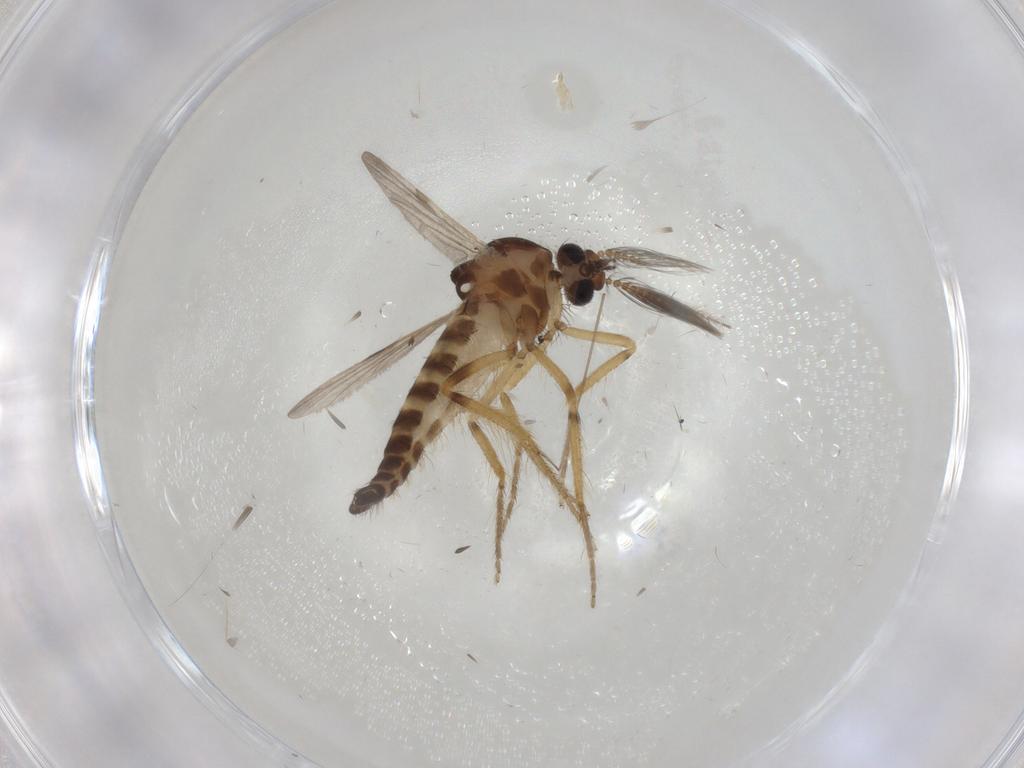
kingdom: Animalia
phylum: Arthropoda
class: Insecta
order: Diptera
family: Ceratopogonidae
